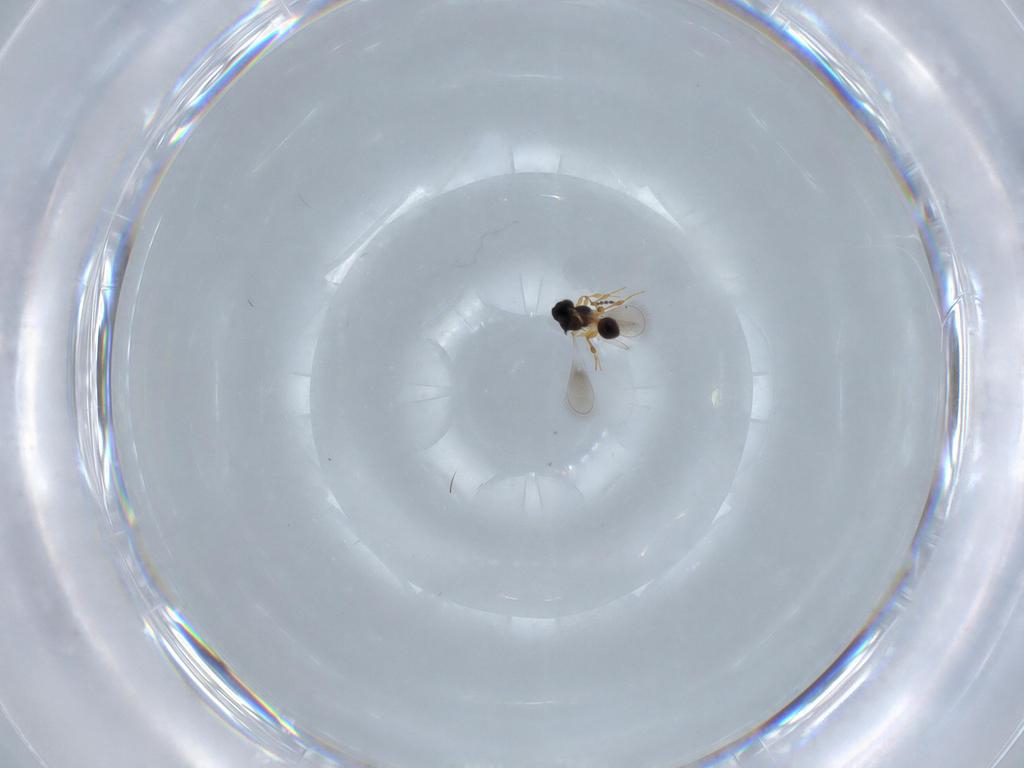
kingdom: Animalia
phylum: Arthropoda
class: Insecta
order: Hymenoptera
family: Platygastridae
